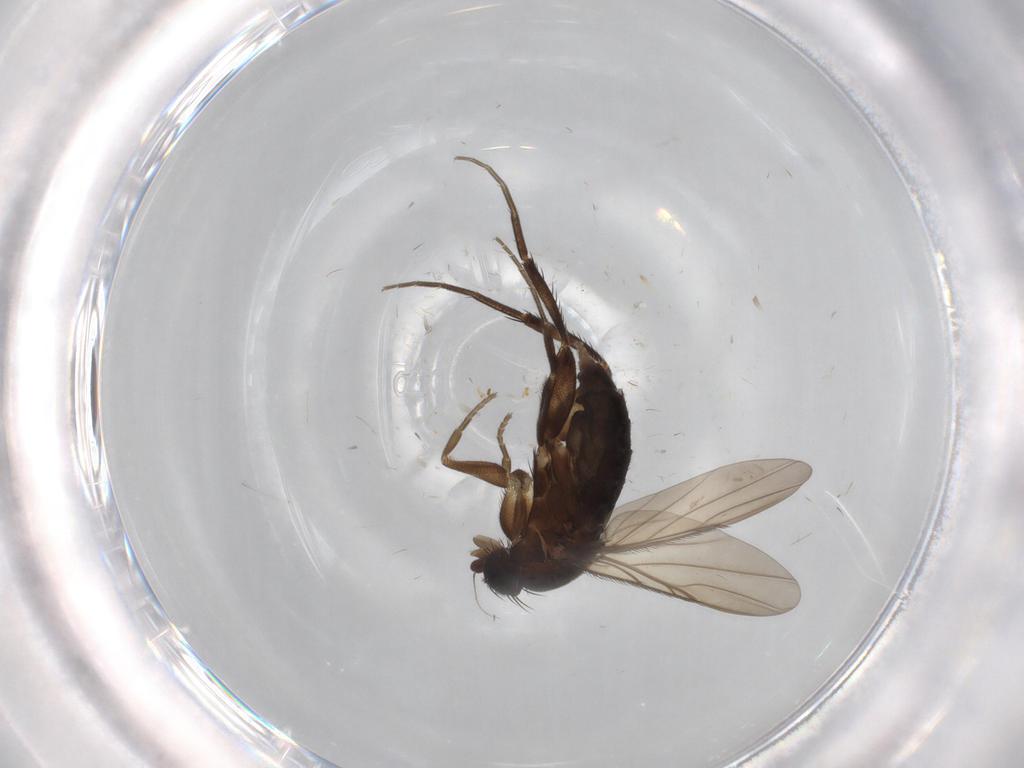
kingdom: Animalia
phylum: Arthropoda
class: Insecta
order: Diptera
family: Phoridae
